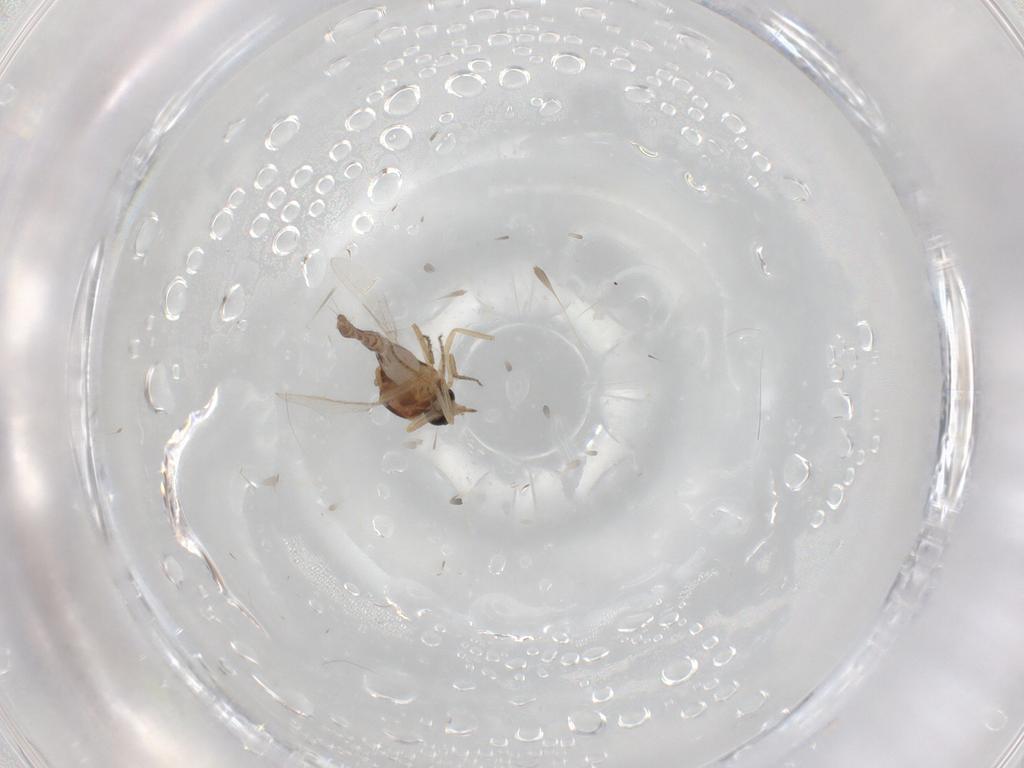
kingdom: Animalia
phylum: Arthropoda
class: Insecta
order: Diptera
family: Ceratopogonidae
